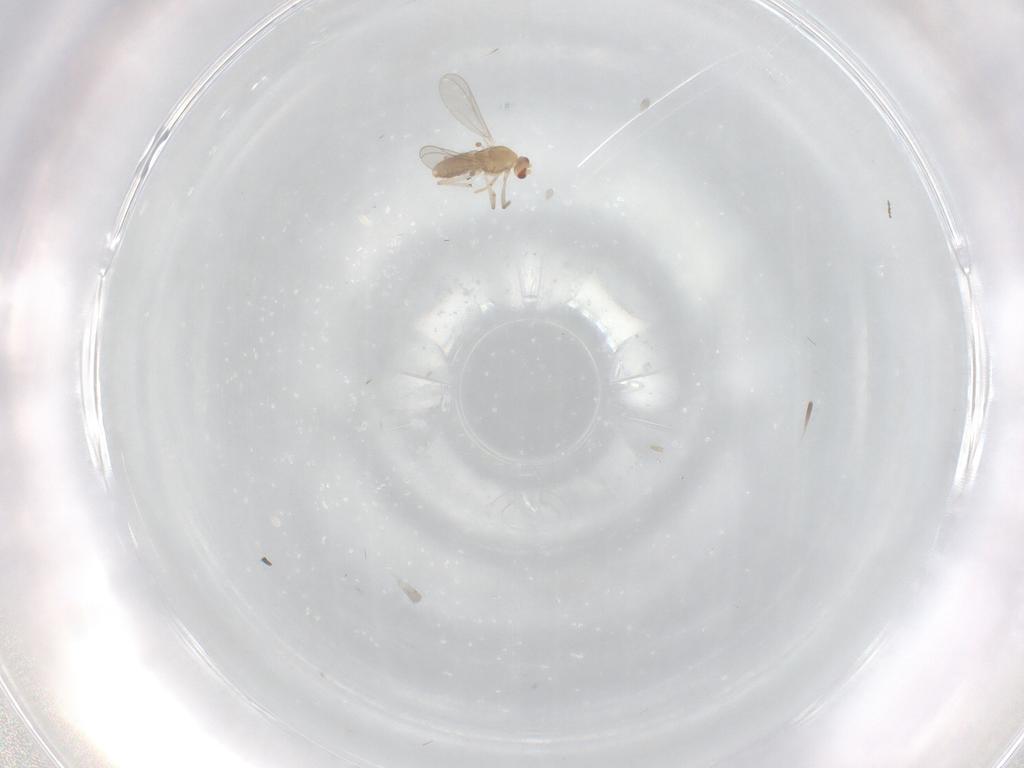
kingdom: Animalia
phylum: Arthropoda
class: Insecta
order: Diptera
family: Cecidomyiidae
